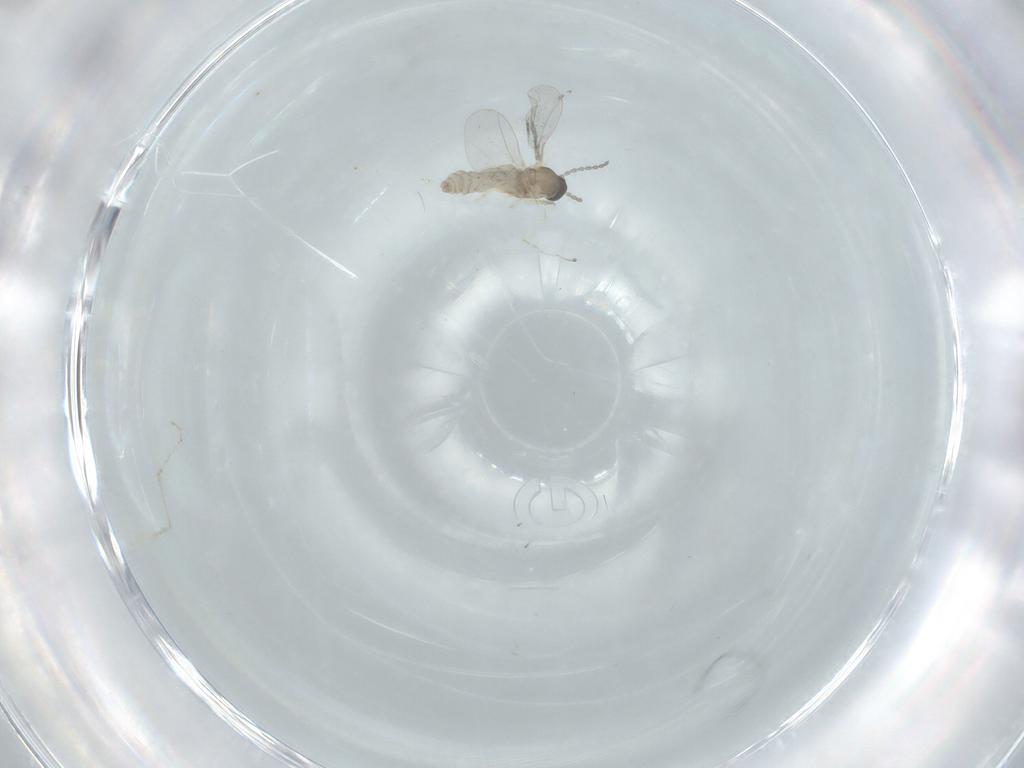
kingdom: Animalia
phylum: Arthropoda
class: Insecta
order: Diptera
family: Cecidomyiidae
